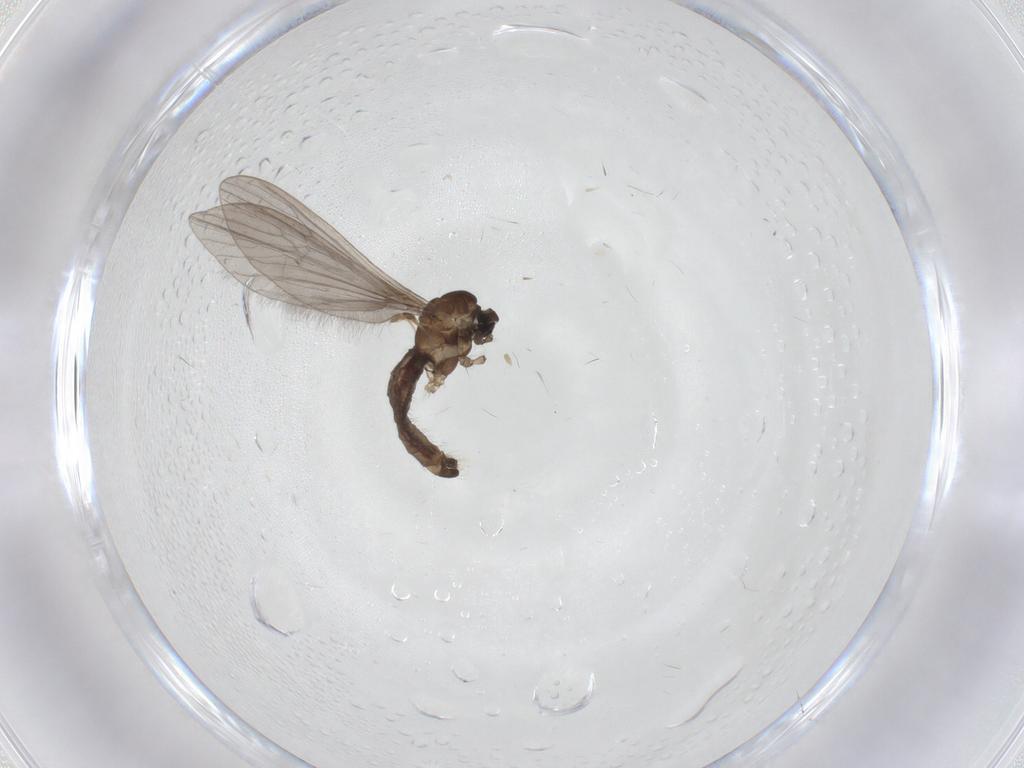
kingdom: Animalia
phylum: Arthropoda
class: Insecta
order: Diptera
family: Limoniidae
